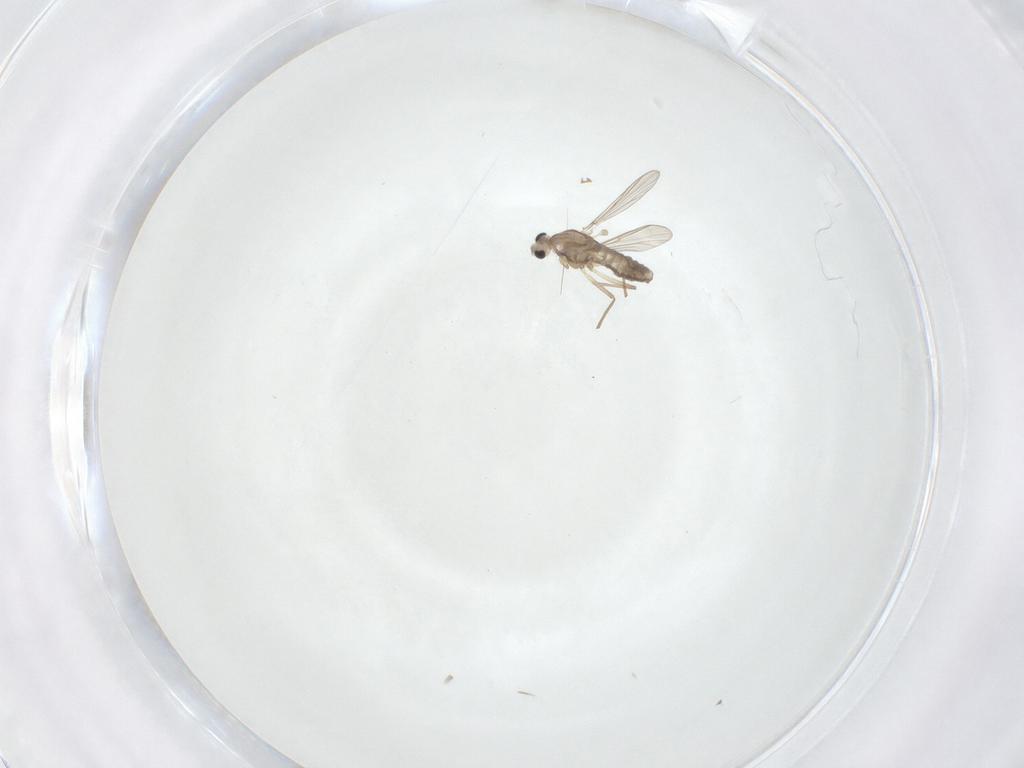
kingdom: Animalia
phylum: Arthropoda
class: Insecta
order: Diptera
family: Chironomidae
